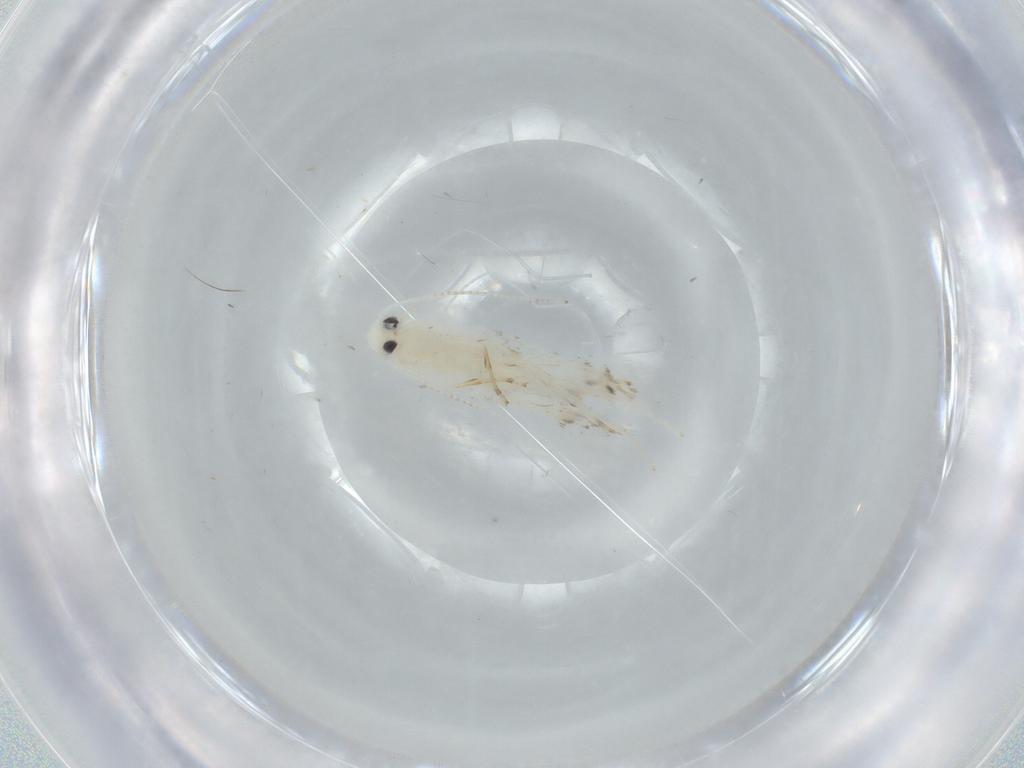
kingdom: Animalia
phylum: Arthropoda
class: Insecta
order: Lepidoptera
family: Gracillariidae
